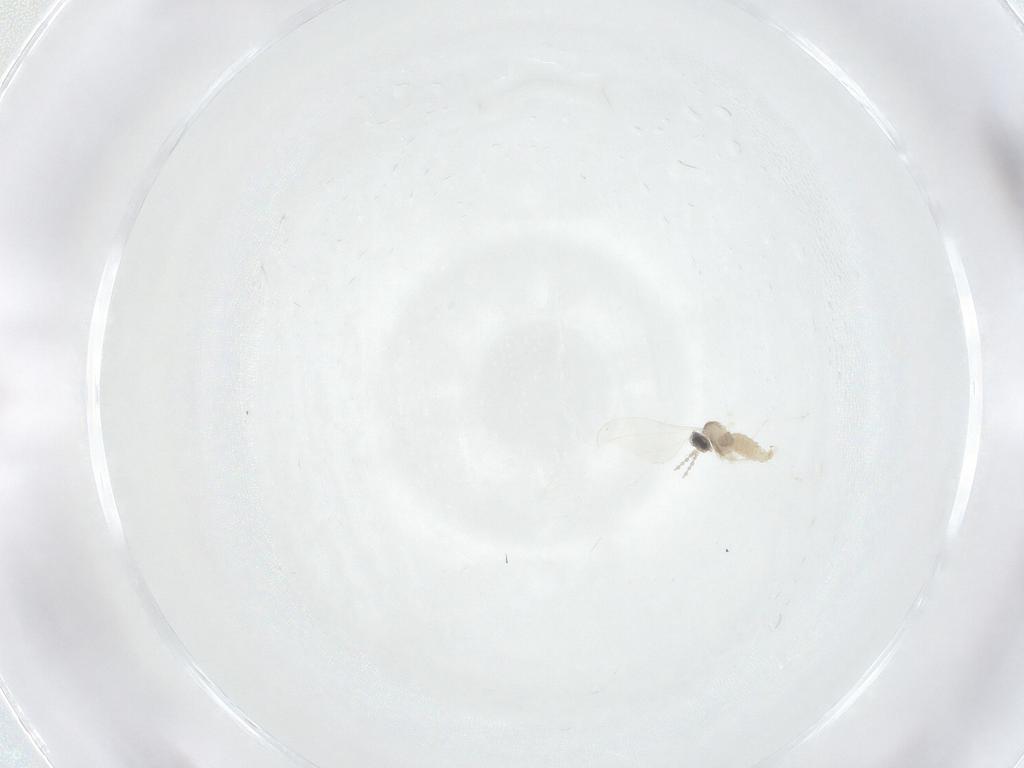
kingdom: Animalia
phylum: Arthropoda
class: Insecta
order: Diptera
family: Cecidomyiidae
